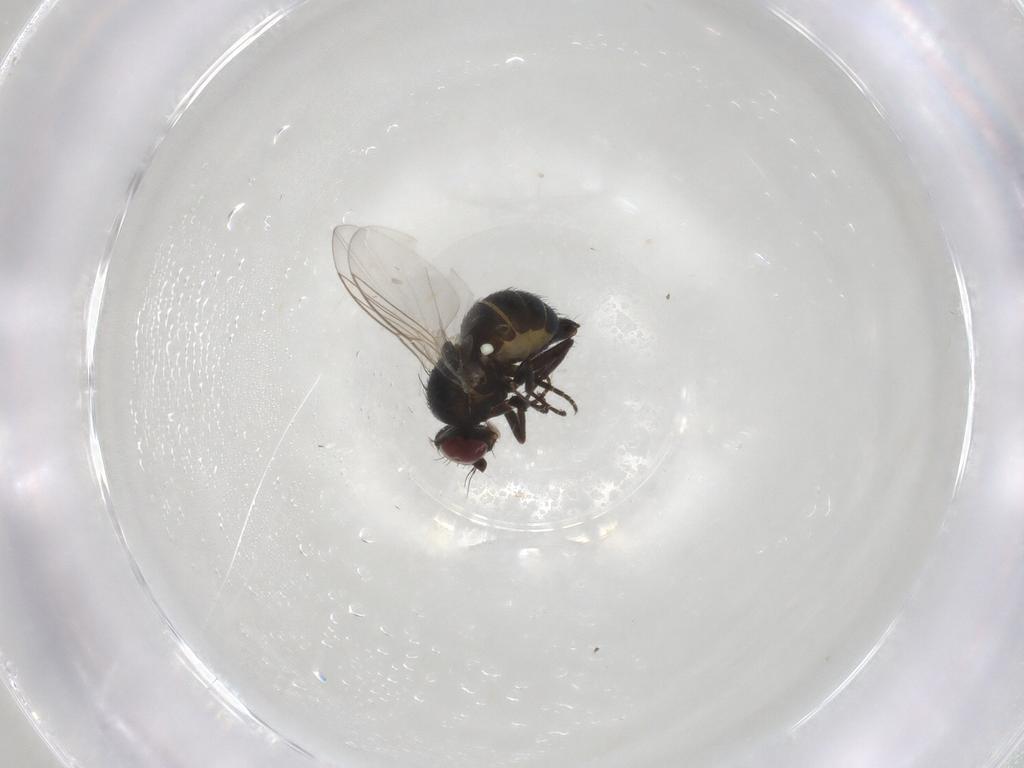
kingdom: Animalia
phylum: Arthropoda
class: Insecta
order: Diptera
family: Agromyzidae
